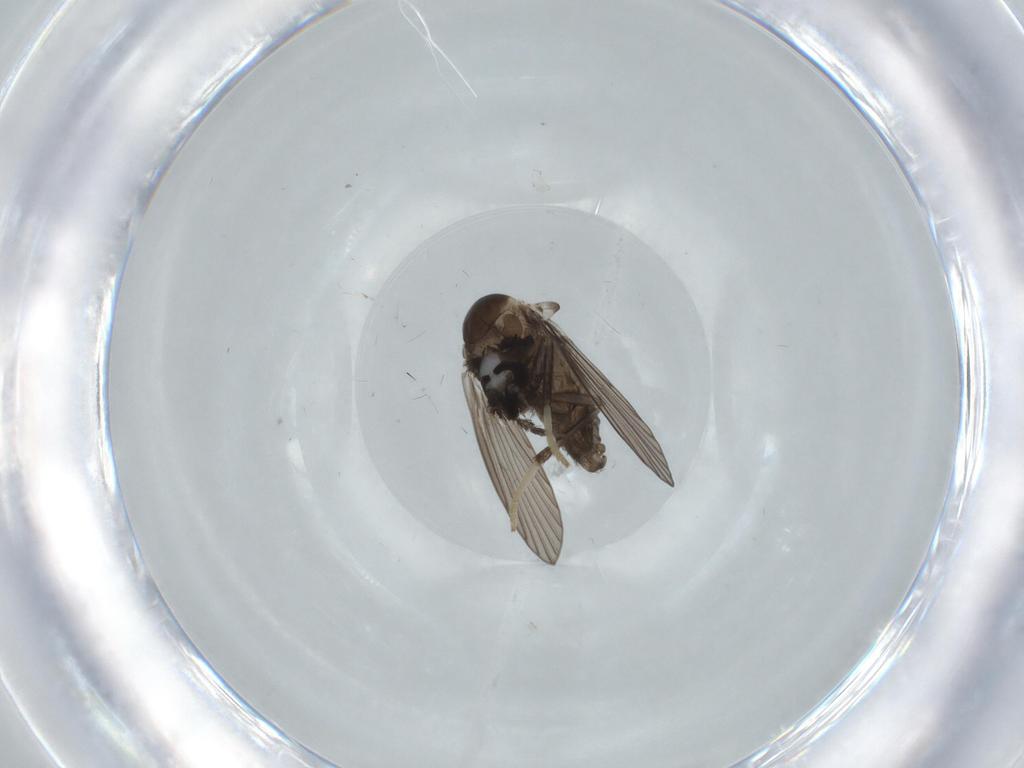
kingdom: Animalia
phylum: Arthropoda
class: Insecta
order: Diptera
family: Psychodidae
